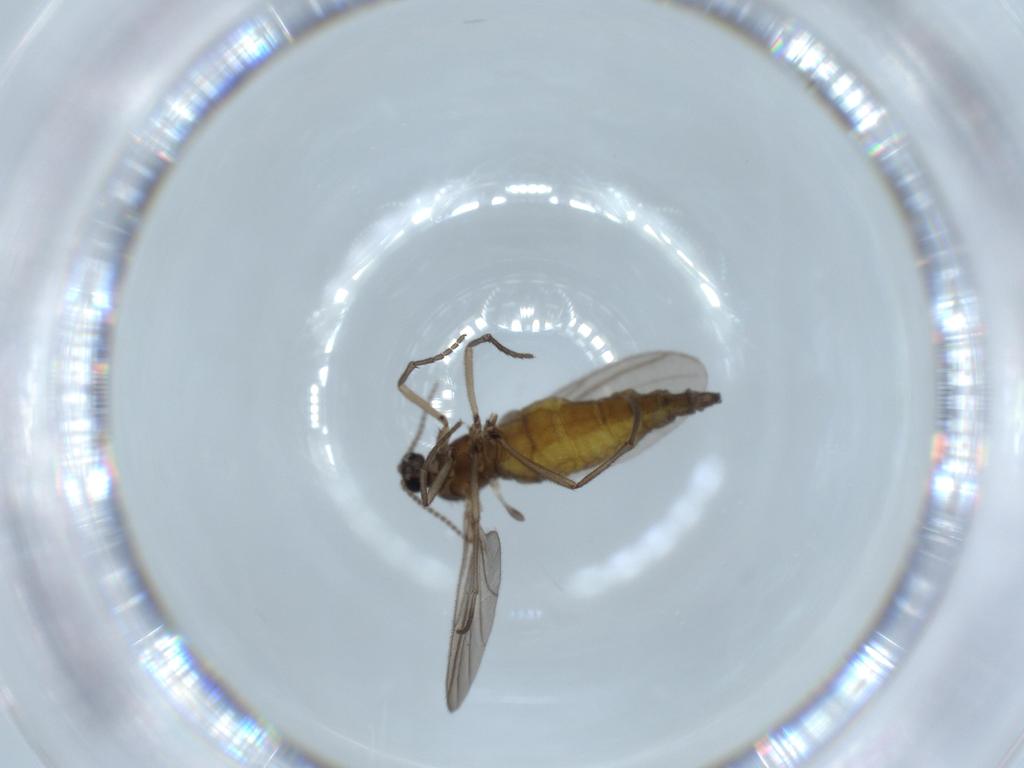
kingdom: Animalia
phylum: Arthropoda
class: Insecta
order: Diptera
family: Sciaridae
